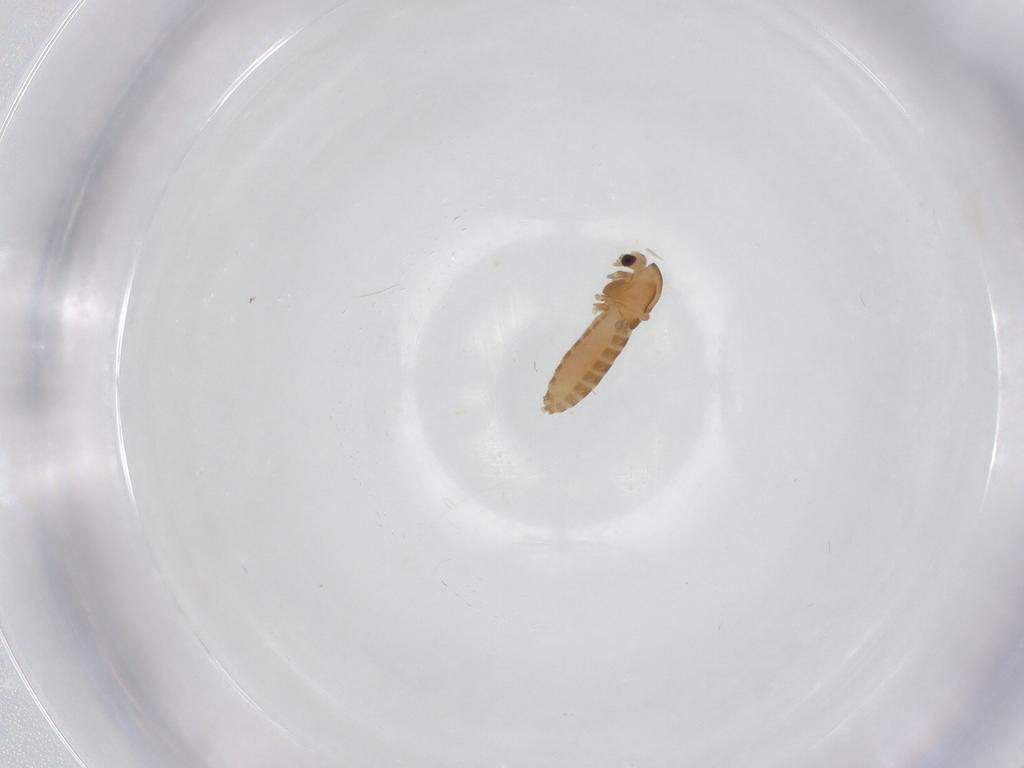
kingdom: Animalia
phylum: Arthropoda
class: Insecta
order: Diptera
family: Chironomidae
